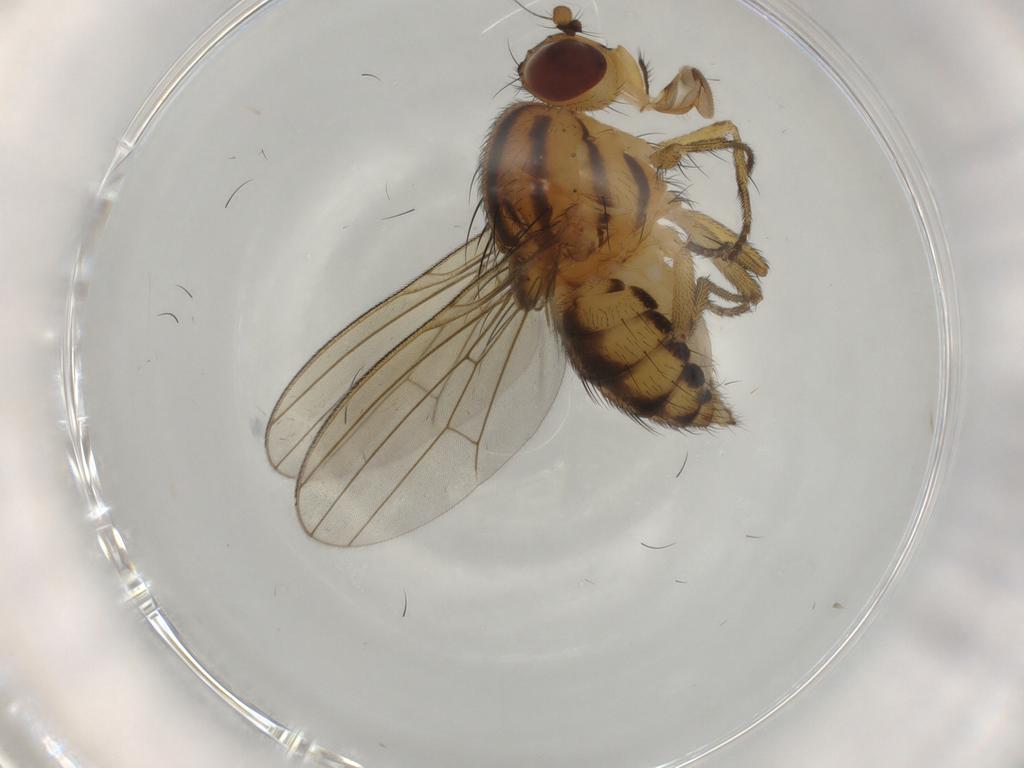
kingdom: Animalia
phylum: Arthropoda
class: Insecta
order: Diptera
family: Lauxaniidae
